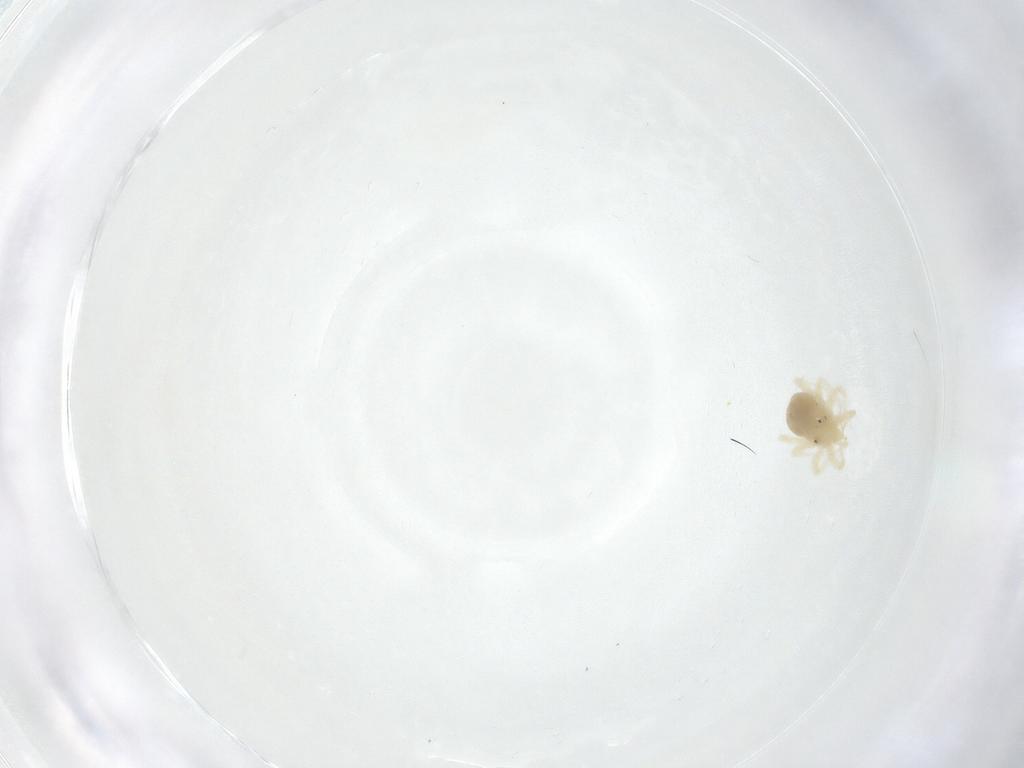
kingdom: Animalia
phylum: Arthropoda
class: Arachnida
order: Trombidiformes
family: Anystidae
